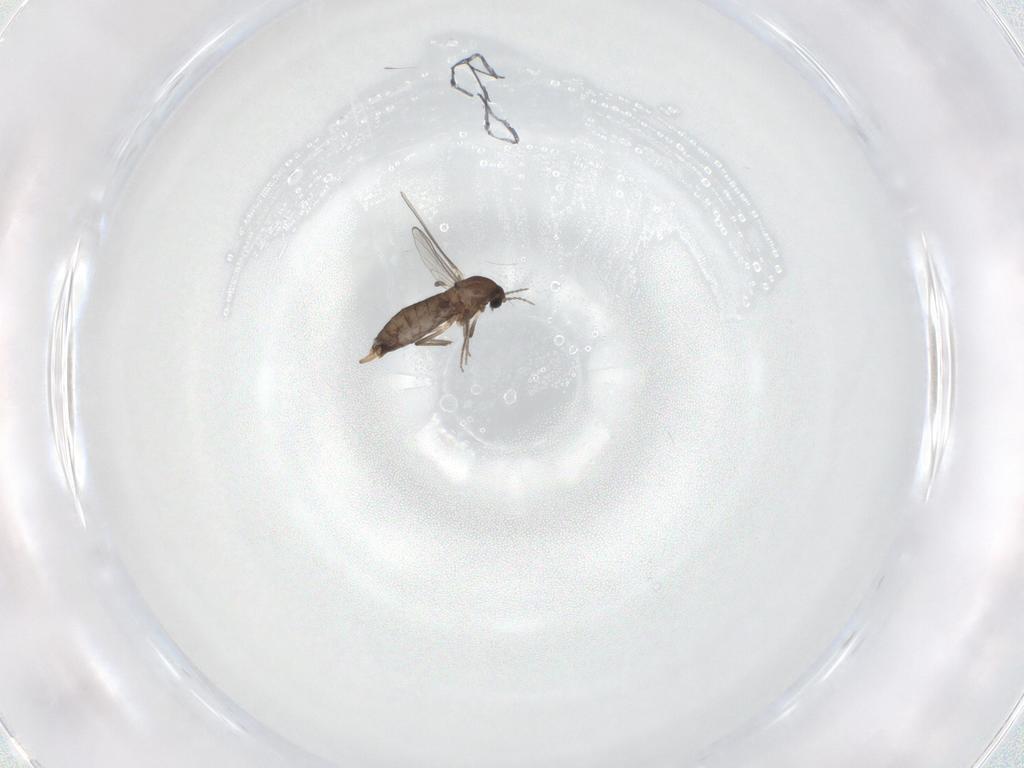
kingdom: Animalia
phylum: Arthropoda
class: Insecta
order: Diptera
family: Chironomidae
